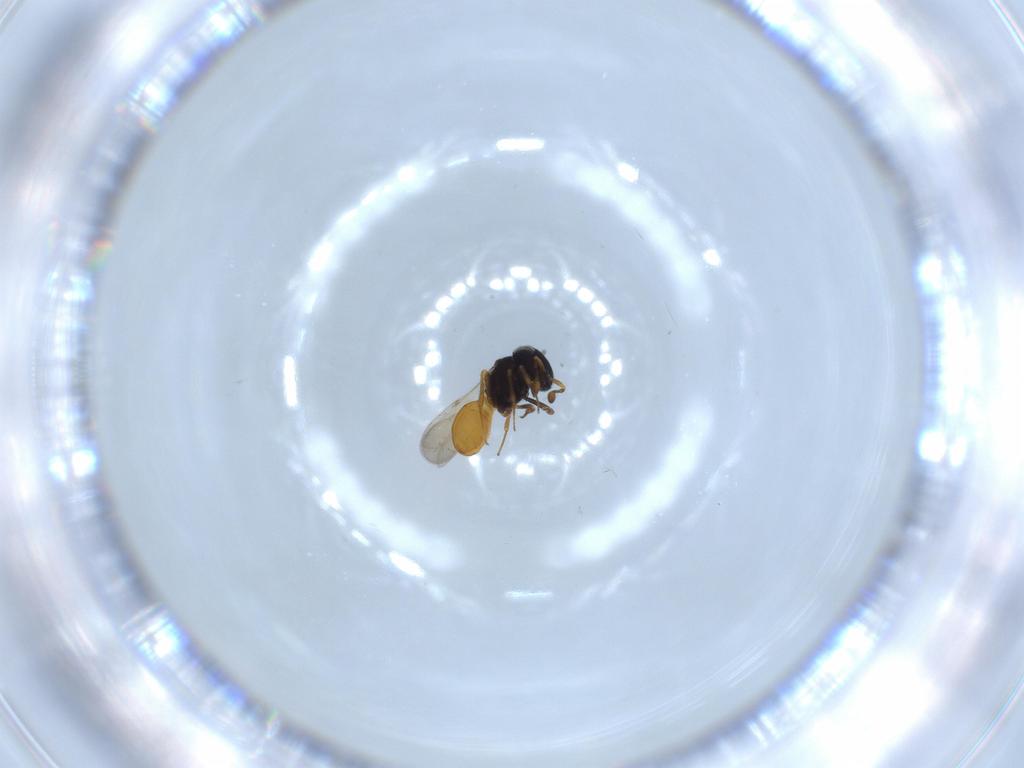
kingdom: Animalia
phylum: Arthropoda
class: Insecta
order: Hymenoptera
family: Scelionidae
